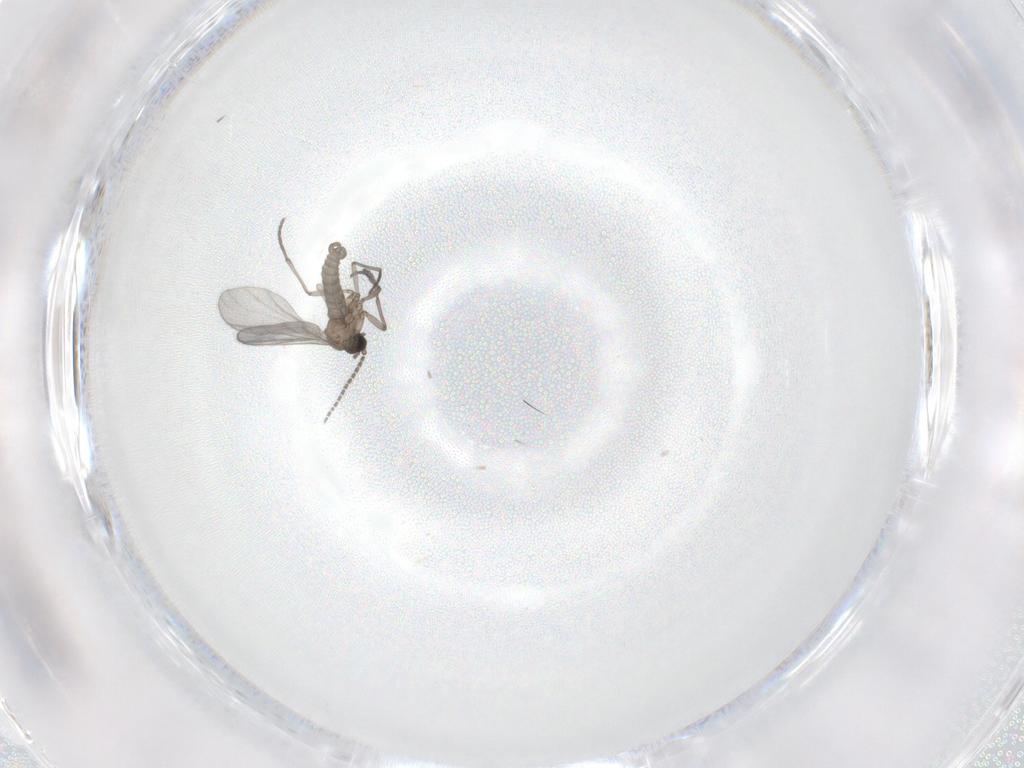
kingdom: Animalia
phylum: Arthropoda
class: Insecta
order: Diptera
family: Sciaridae
